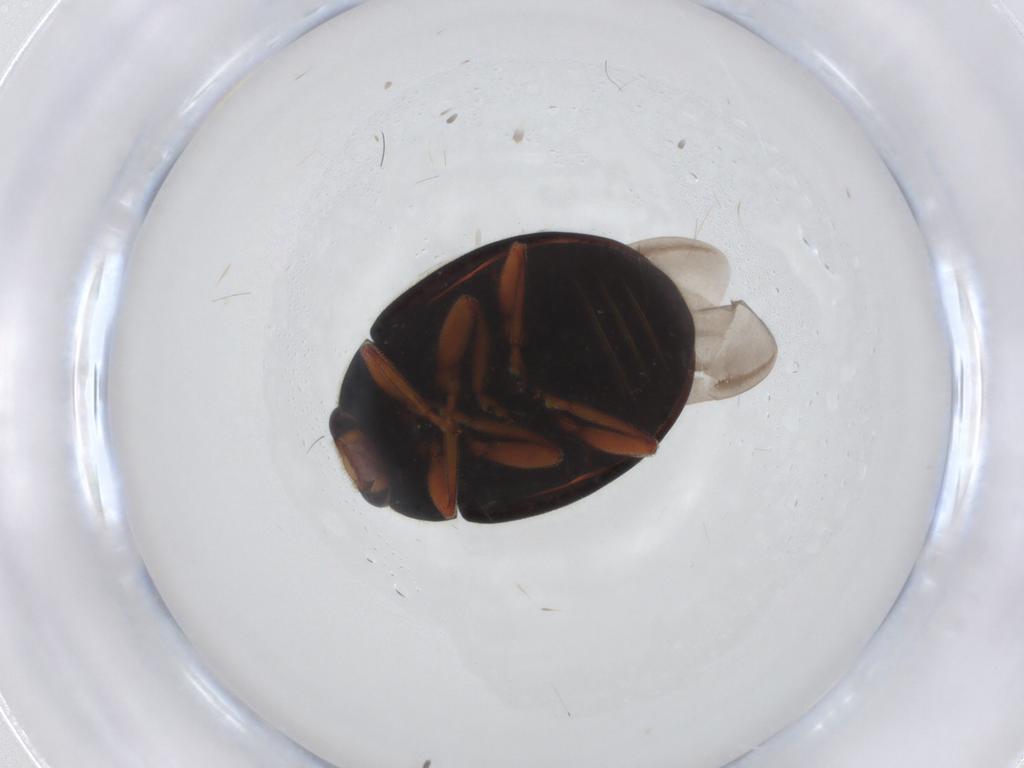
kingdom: Animalia
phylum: Arthropoda
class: Insecta
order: Coleoptera
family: Coccinellidae
